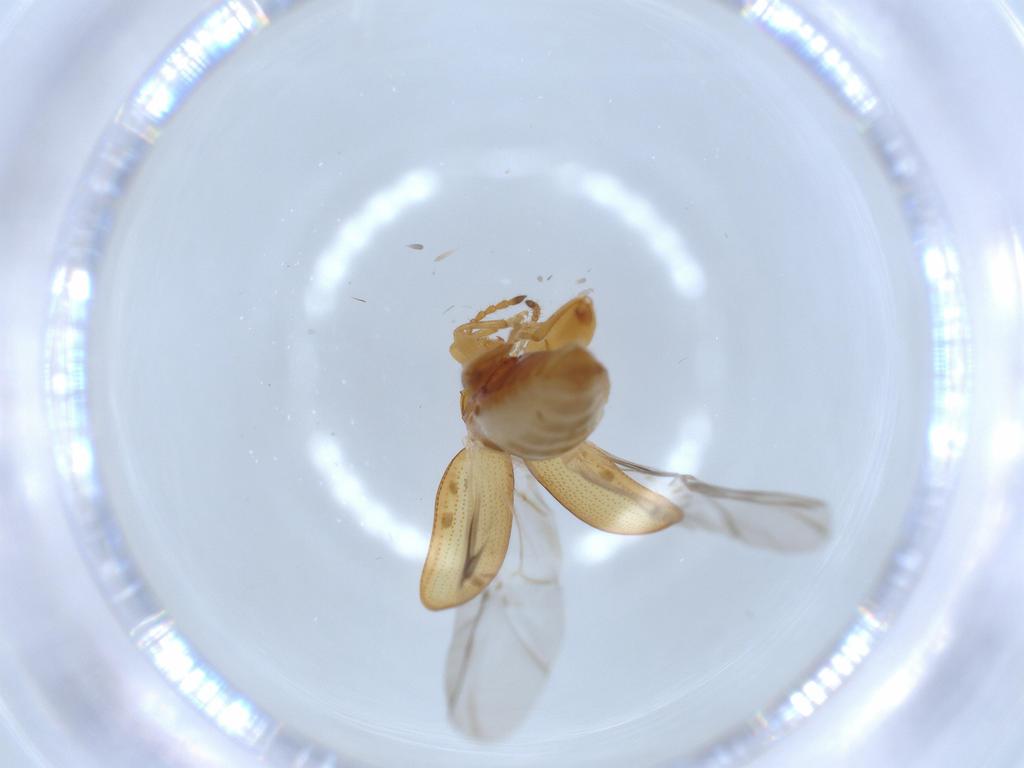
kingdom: Animalia
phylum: Arthropoda
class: Insecta
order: Coleoptera
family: Chrysomelidae
